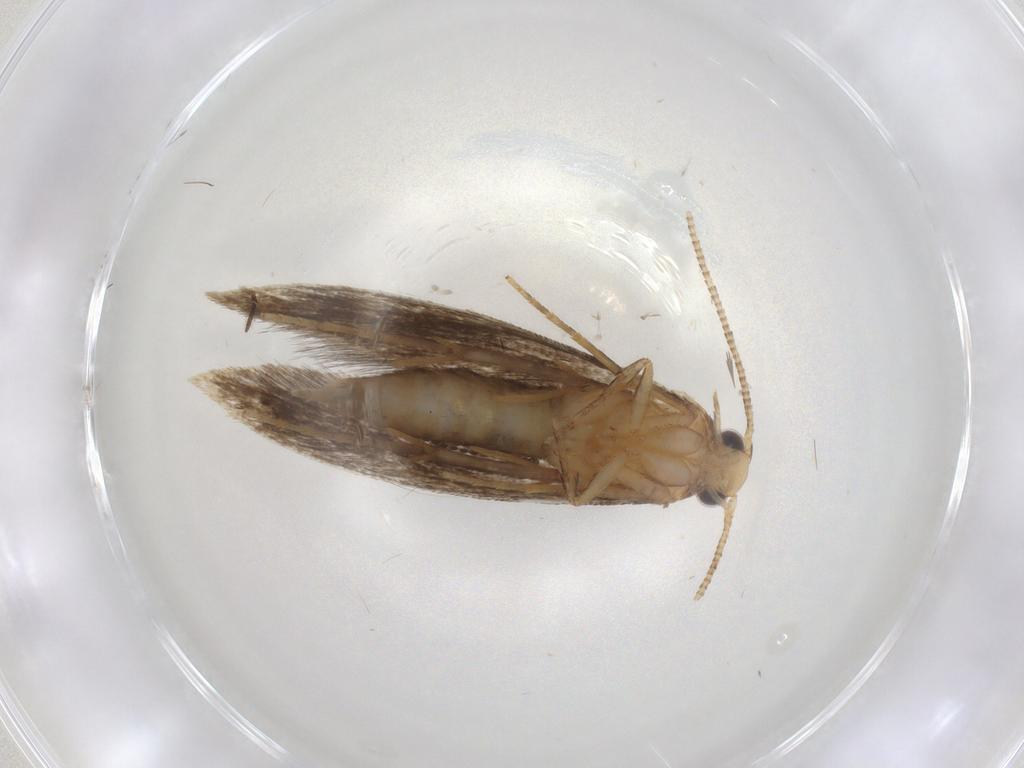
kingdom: Animalia
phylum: Arthropoda
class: Insecta
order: Lepidoptera
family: Tineidae
